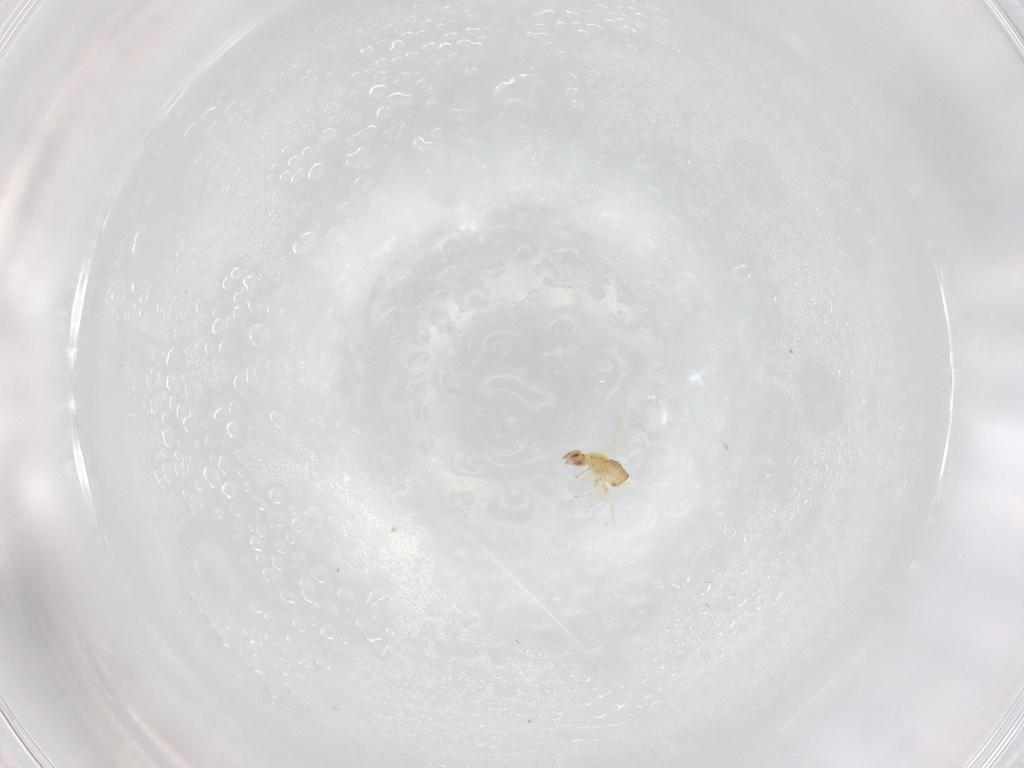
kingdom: Animalia
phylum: Arthropoda
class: Insecta
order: Hymenoptera
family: Trichogrammatidae
